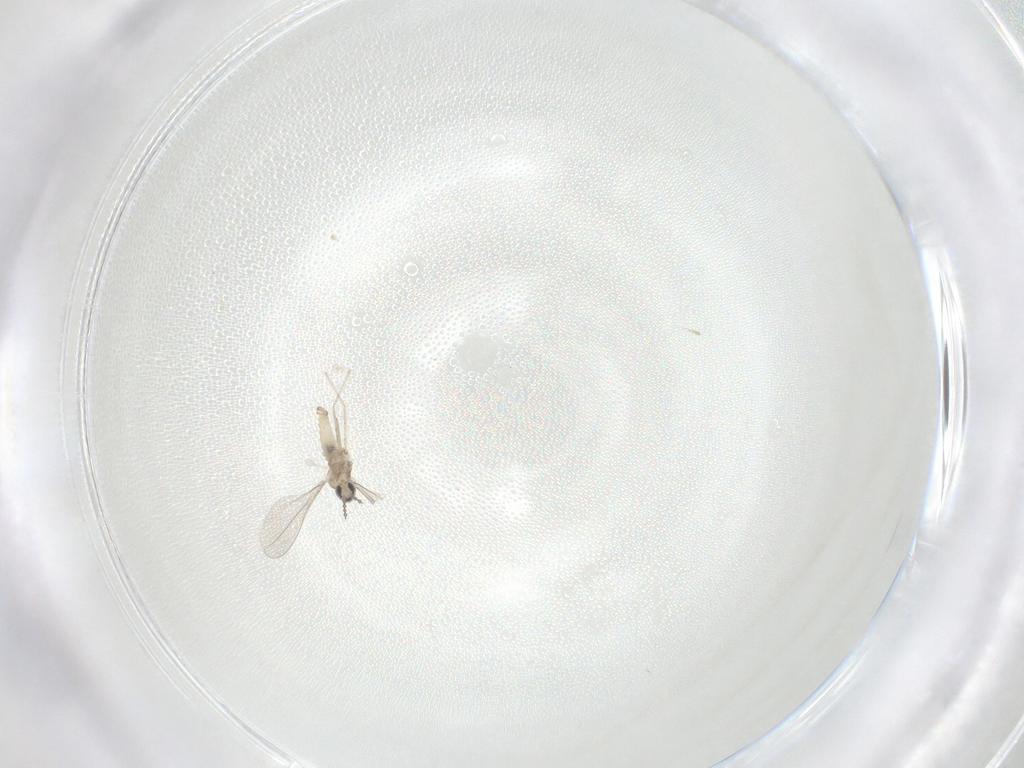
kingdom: Animalia
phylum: Arthropoda
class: Insecta
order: Diptera
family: Cecidomyiidae
